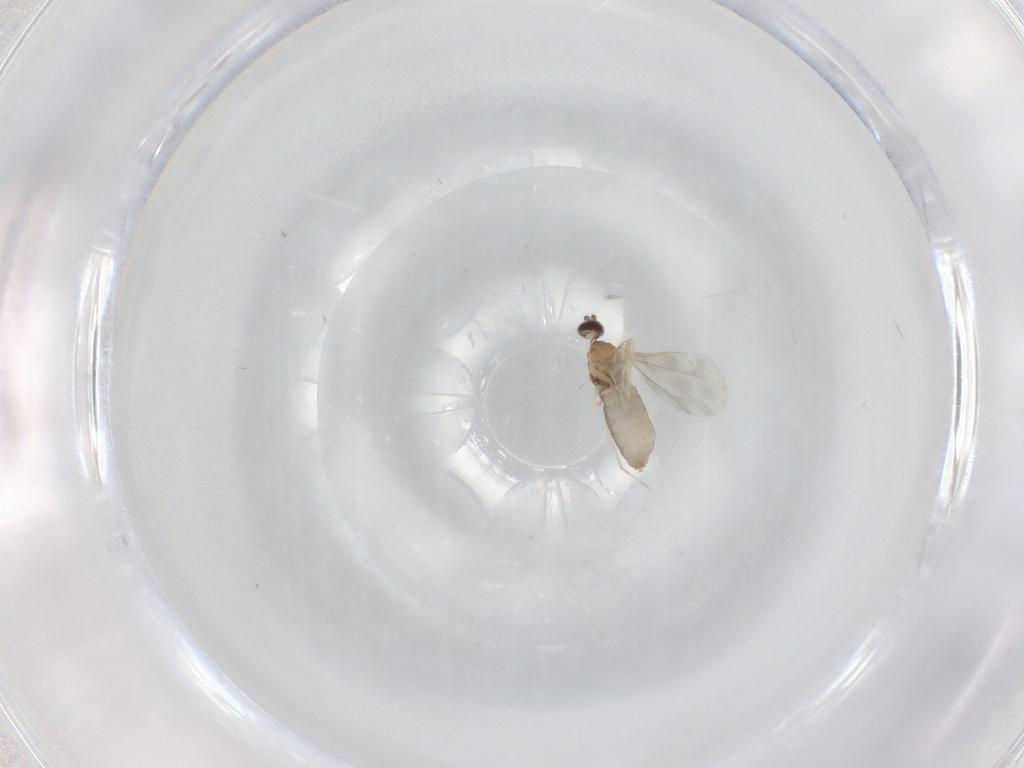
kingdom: Animalia
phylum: Arthropoda
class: Insecta
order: Diptera
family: Cecidomyiidae
